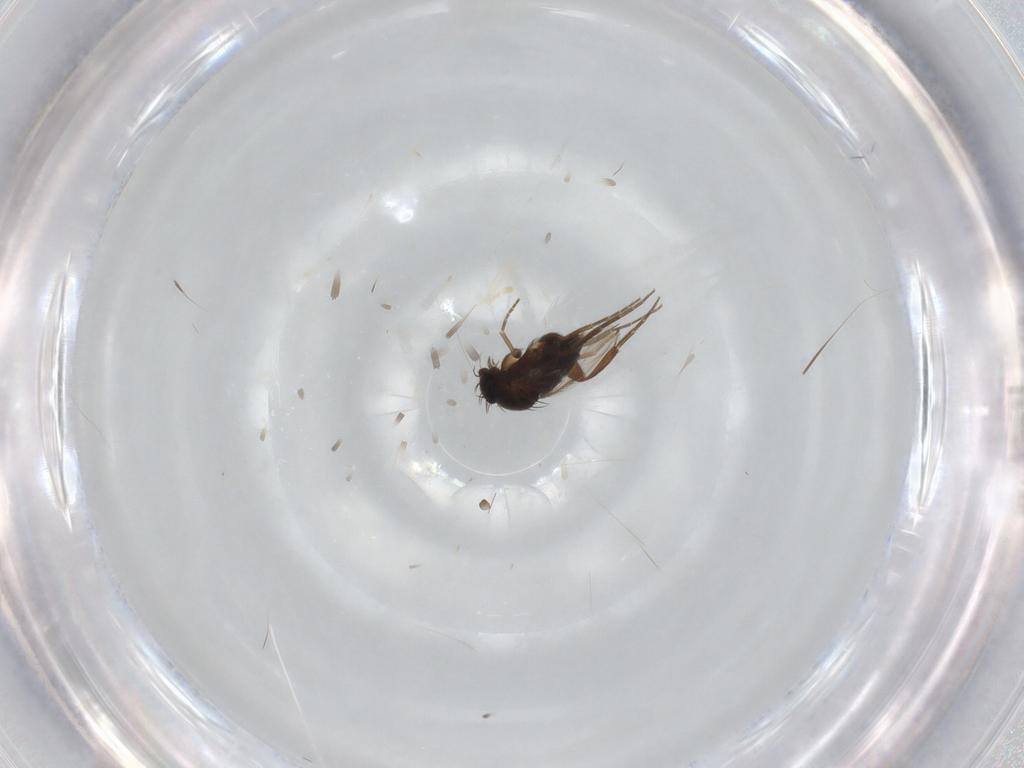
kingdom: Animalia
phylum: Arthropoda
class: Insecta
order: Diptera
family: Phoridae
